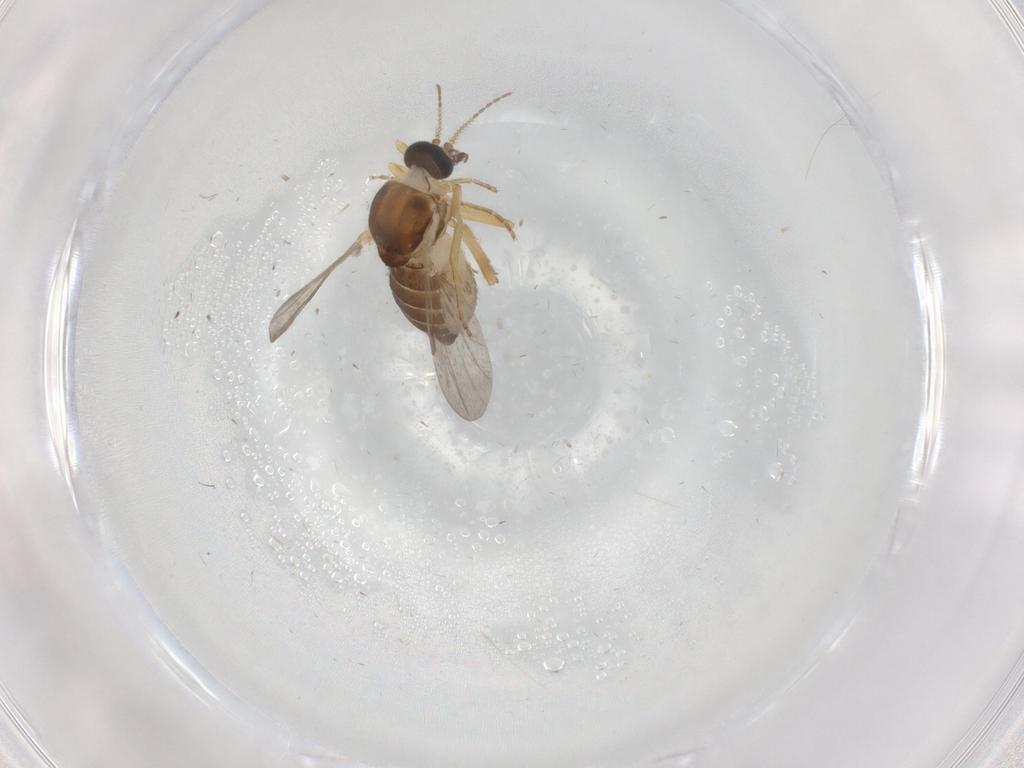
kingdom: Animalia
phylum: Arthropoda
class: Insecta
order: Diptera
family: Ceratopogonidae
